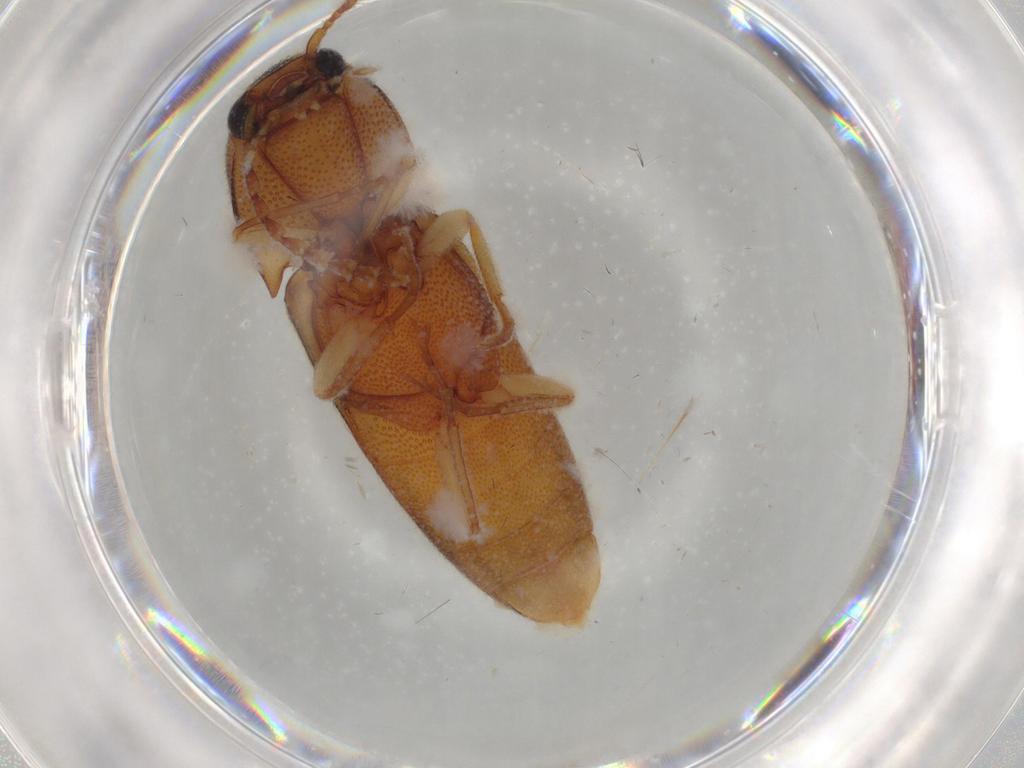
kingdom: Animalia
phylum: Arthropoda
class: Insecta
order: Coleoptera
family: Elateridae
